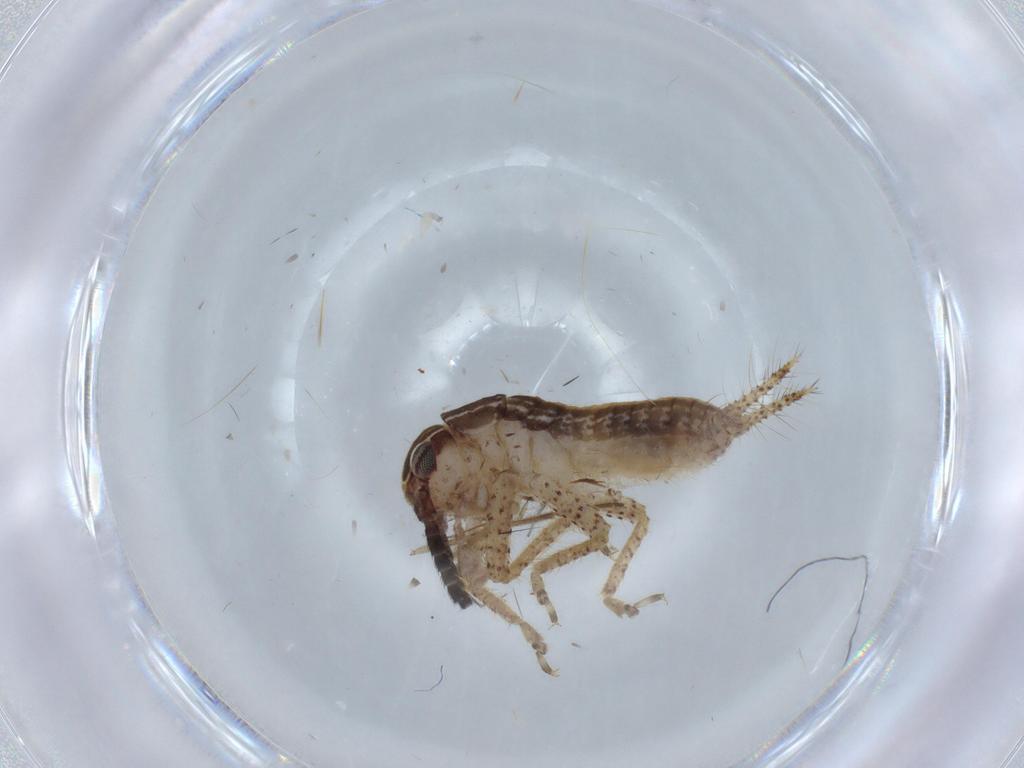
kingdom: Animalia
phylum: Arthropoda
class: Insecta
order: Orthoptera
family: Gryllidae
